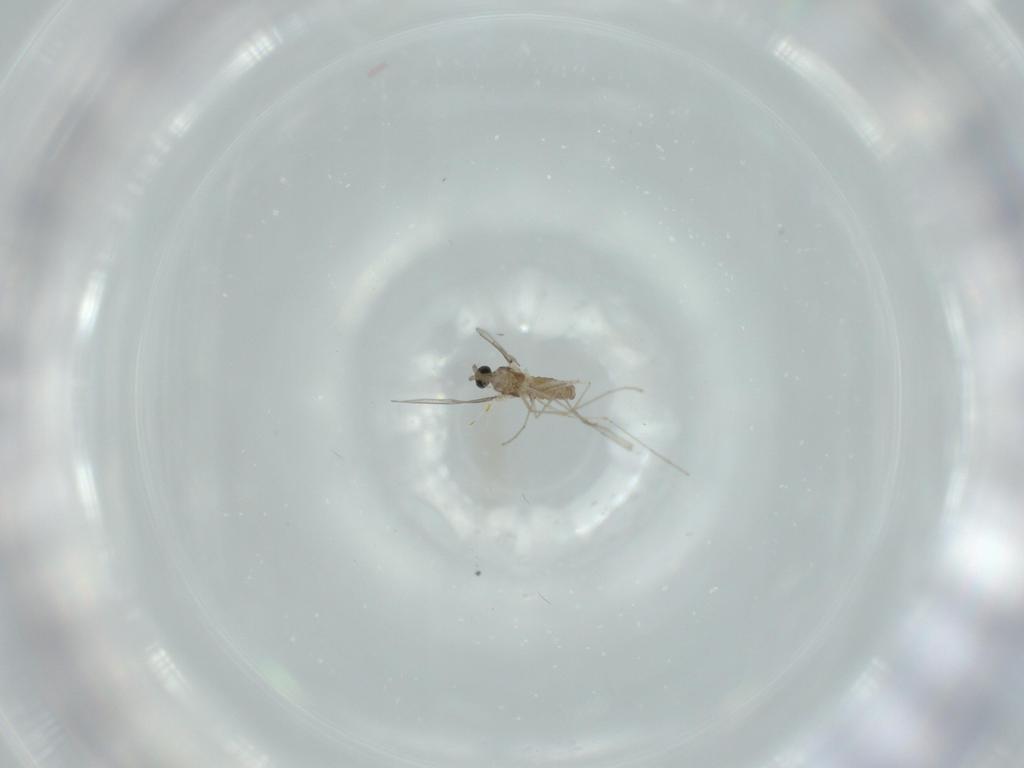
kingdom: Animalia
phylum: Arthropoda
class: Insecta
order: Diptera
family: Cecidomyiidae
